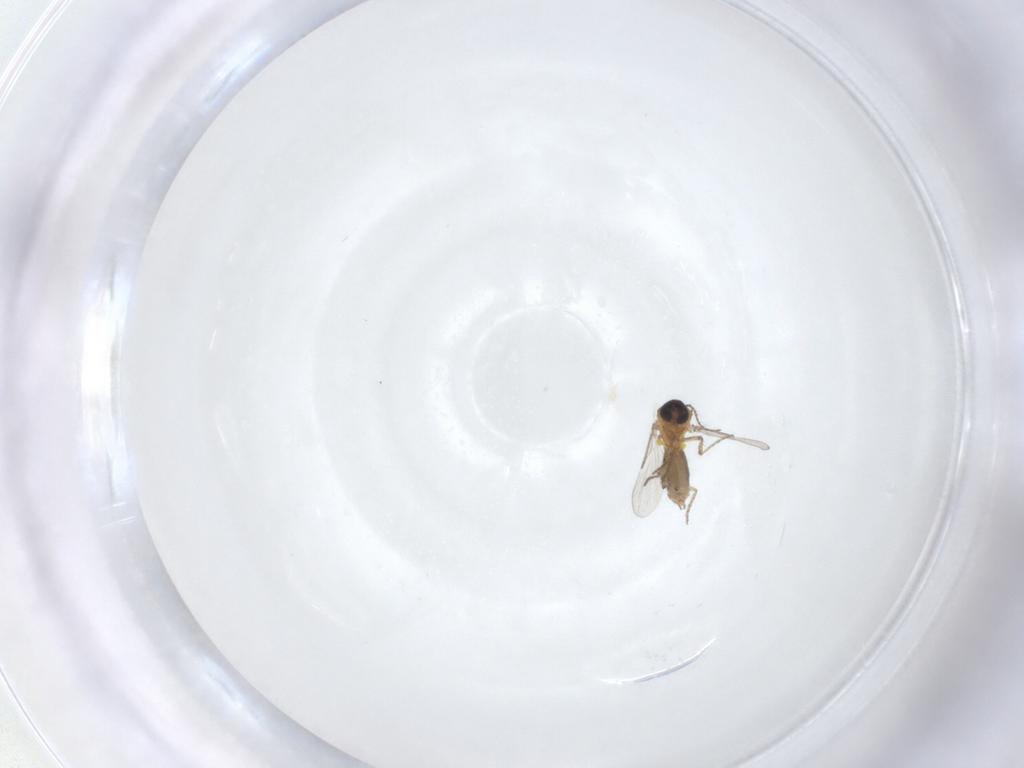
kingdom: Animalia
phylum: Arthropoda
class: Insecta
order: Diptera
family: Ceratopogonidae
